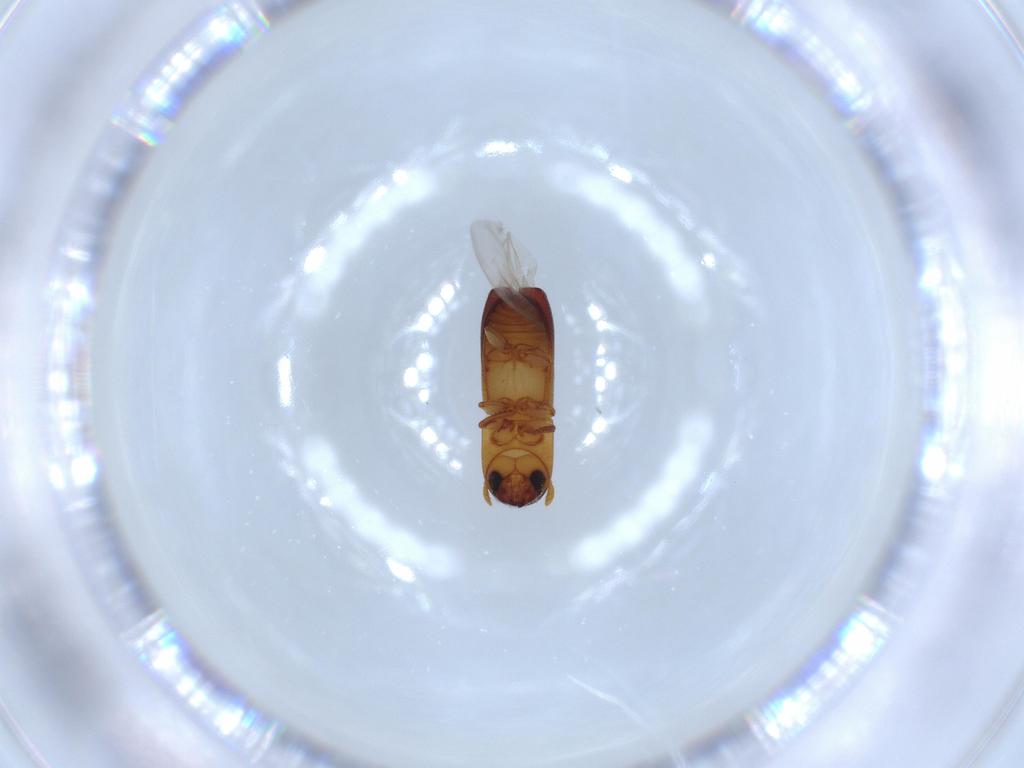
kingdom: Animalia
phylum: Arthropoda
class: Insecta
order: Coleoptera
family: Curculionidae
